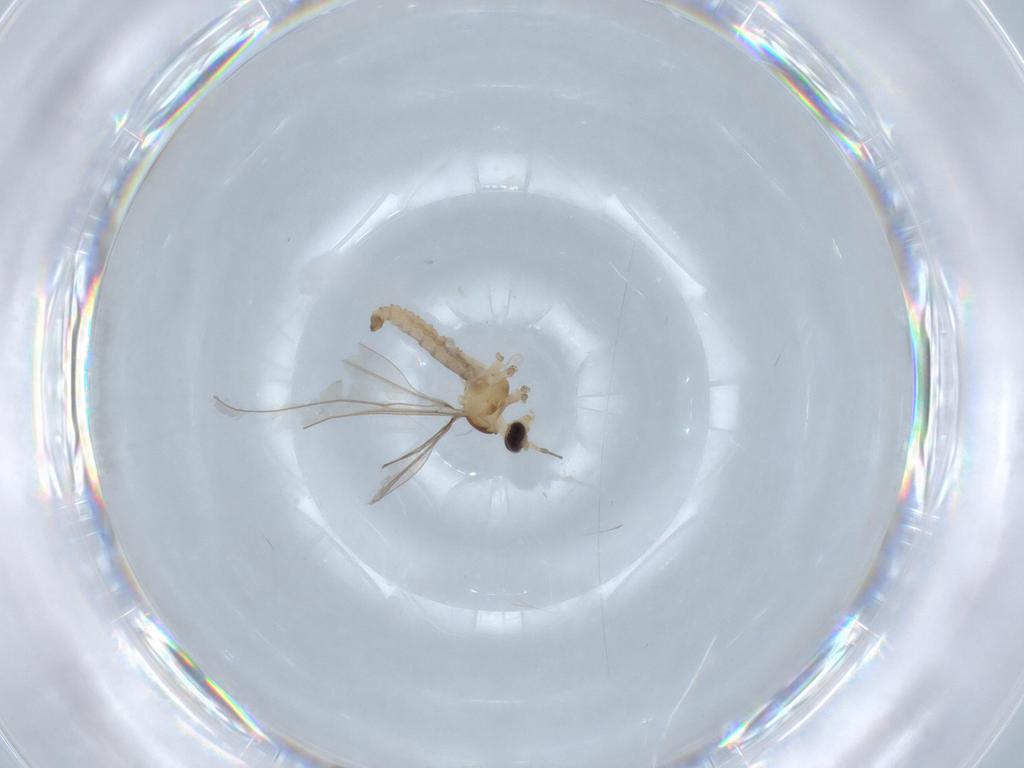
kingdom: Animalia
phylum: Arthropoda
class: Insecta
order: Diptera
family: Cecidomyiidae
